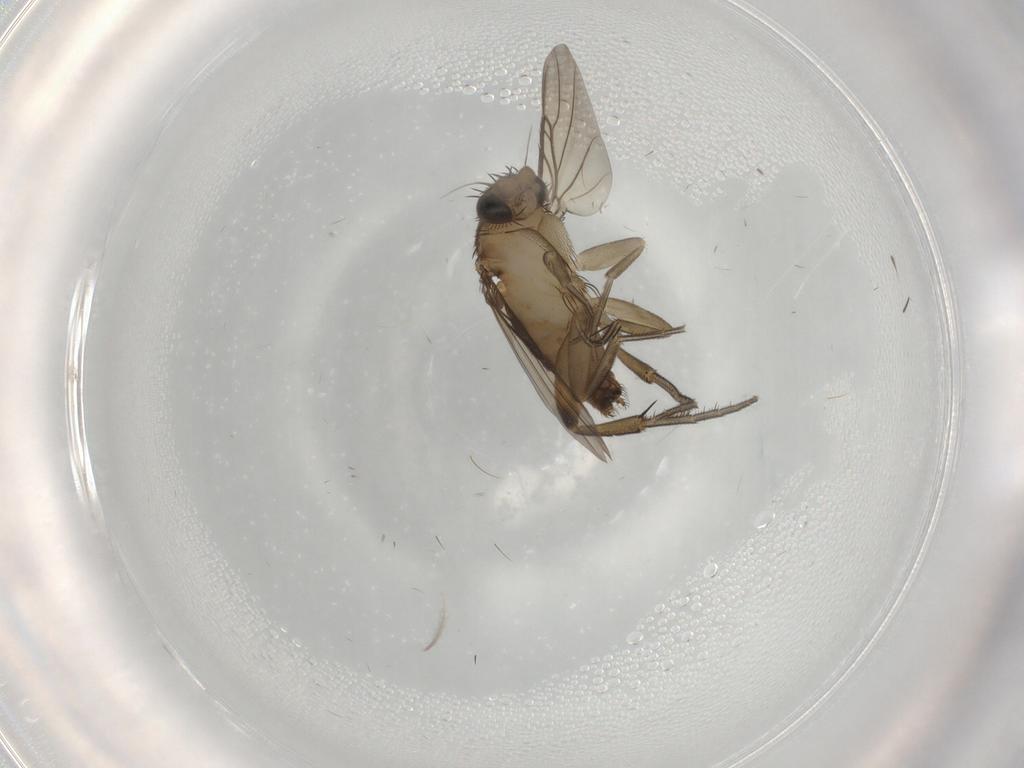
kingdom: Animalia
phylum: Arthropoda
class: Insecta
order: Diptera
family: Phoridae
